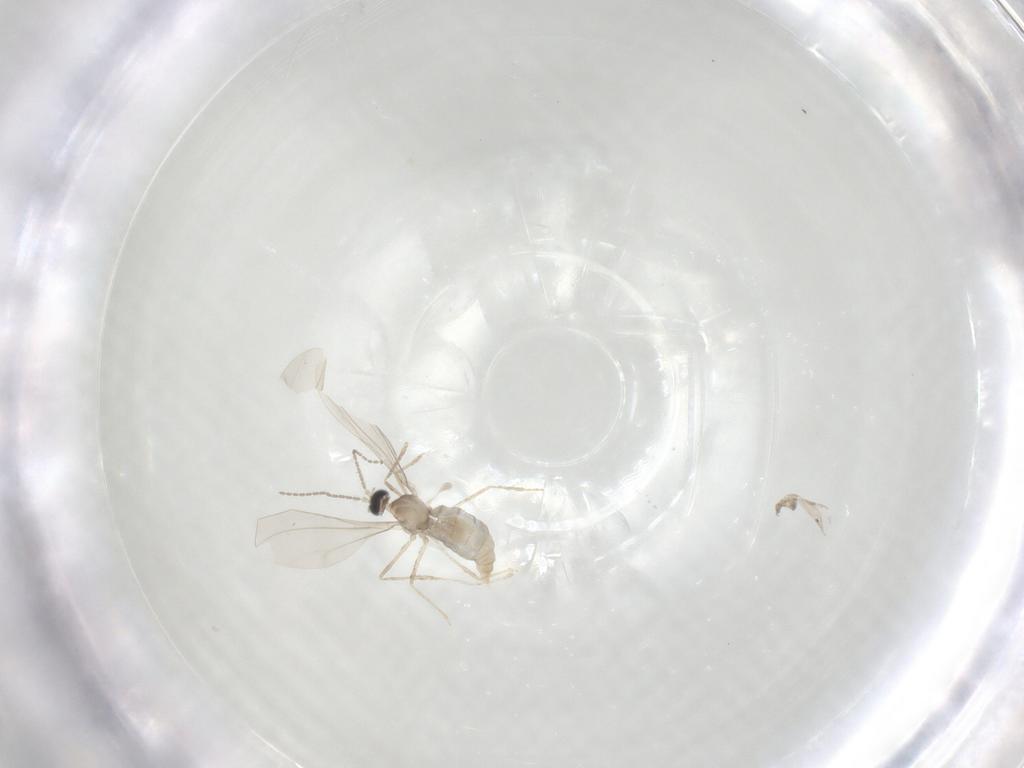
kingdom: Animalia
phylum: Arthropoda
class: Insecta
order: Diptera
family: Cecidomyiidae
